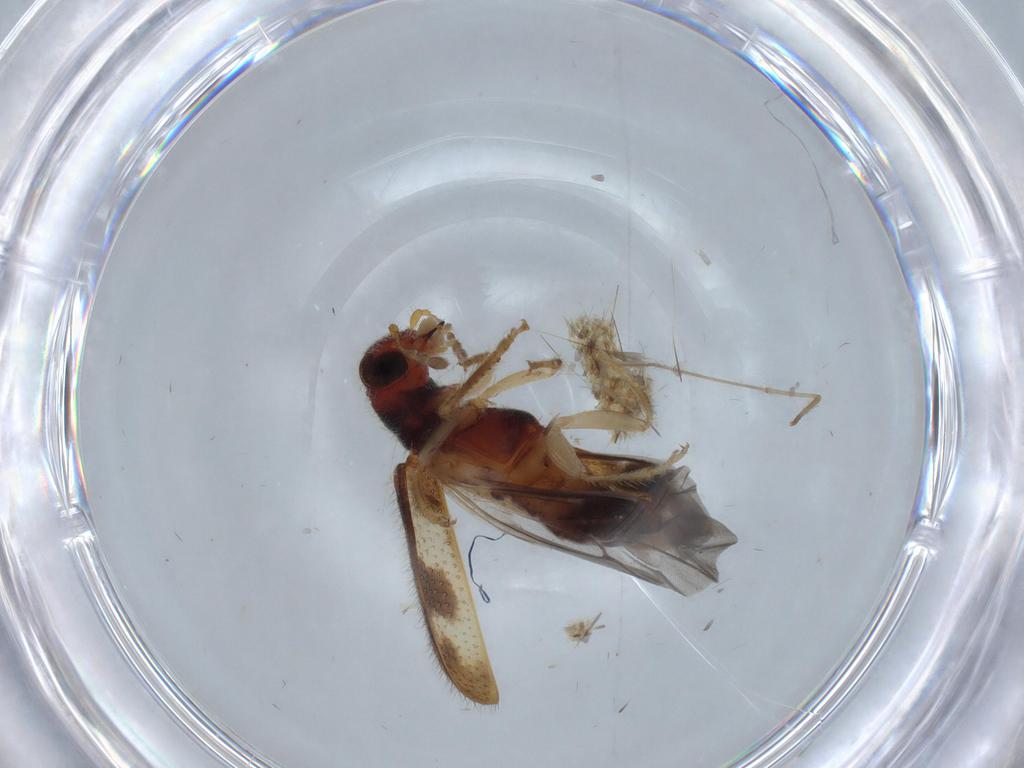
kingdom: Animalia
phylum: Arthropoda
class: Insecta
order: Coleoptera
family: Cleridae
